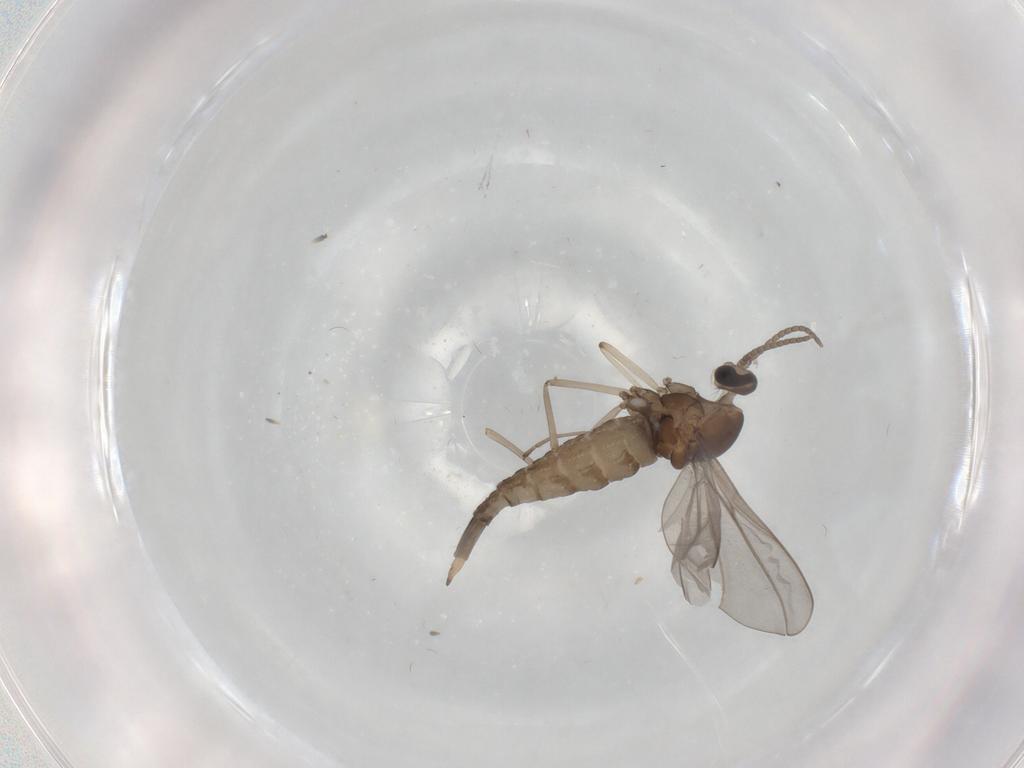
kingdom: Animalia
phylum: Arthropoda
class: Insecta
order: Diptera
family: Cecidomyiidae
